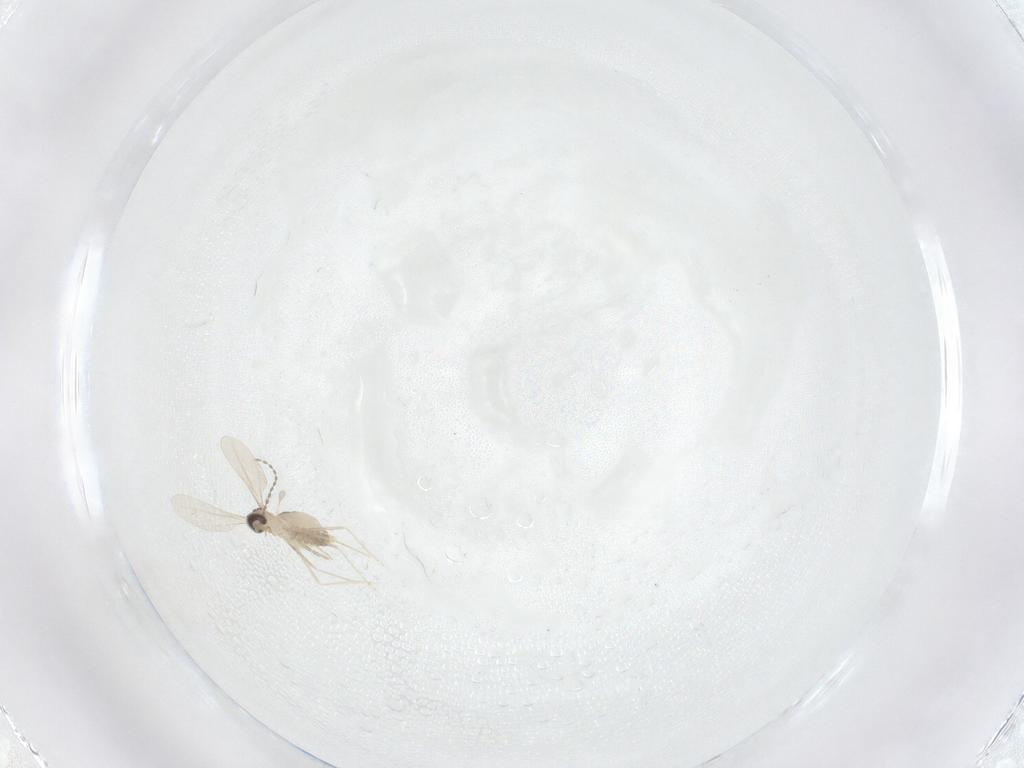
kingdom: Animalia
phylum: Arthropoda
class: Insecta
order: Diptera
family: Cecidomyiidae
